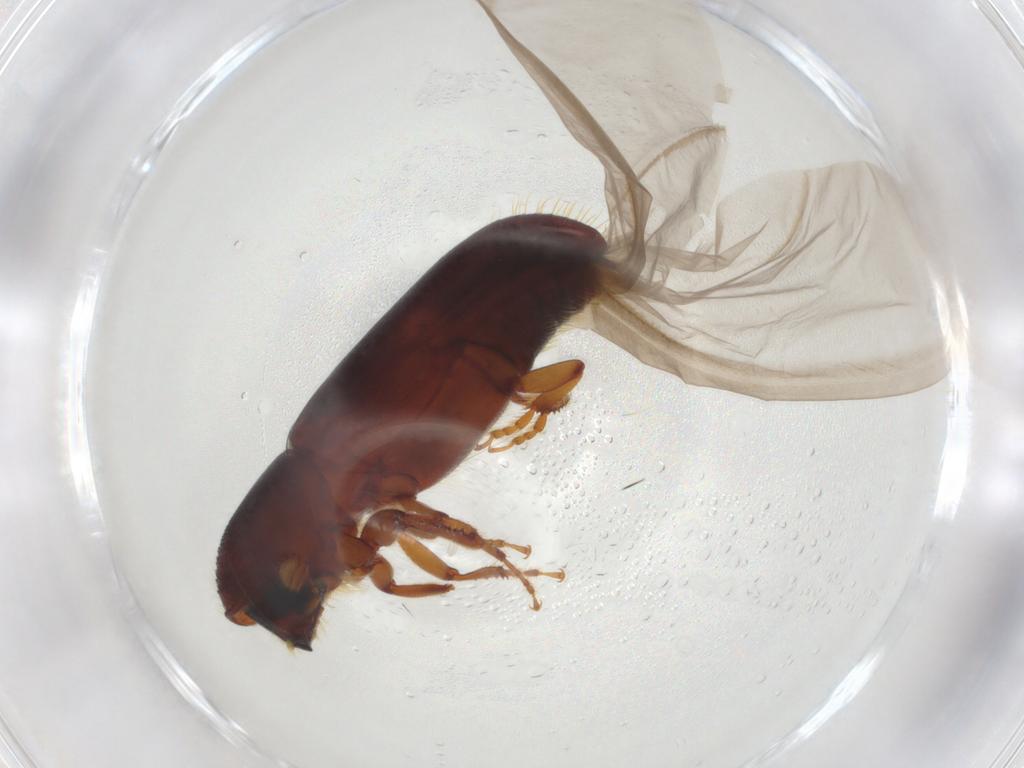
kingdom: Animalia
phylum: Arthropoda
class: Insecta
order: Coleoptera
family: Curculionidae
